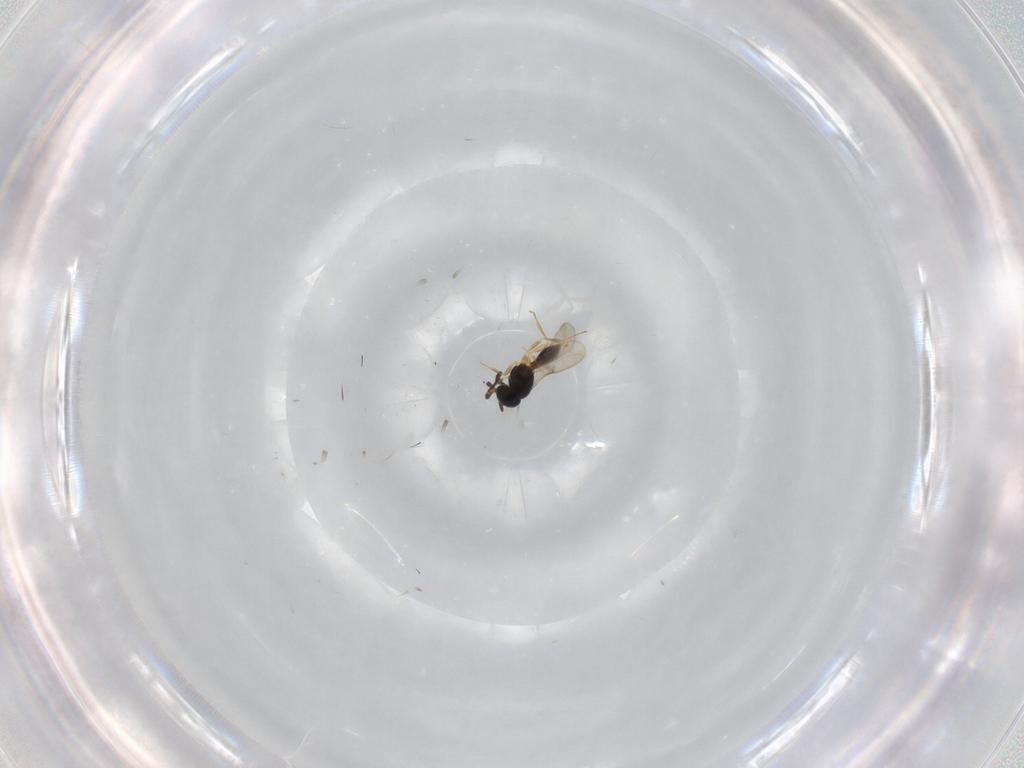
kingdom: Animalia
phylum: Arthropoda
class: Insecta
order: Hymenoptera
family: Scelionidae
